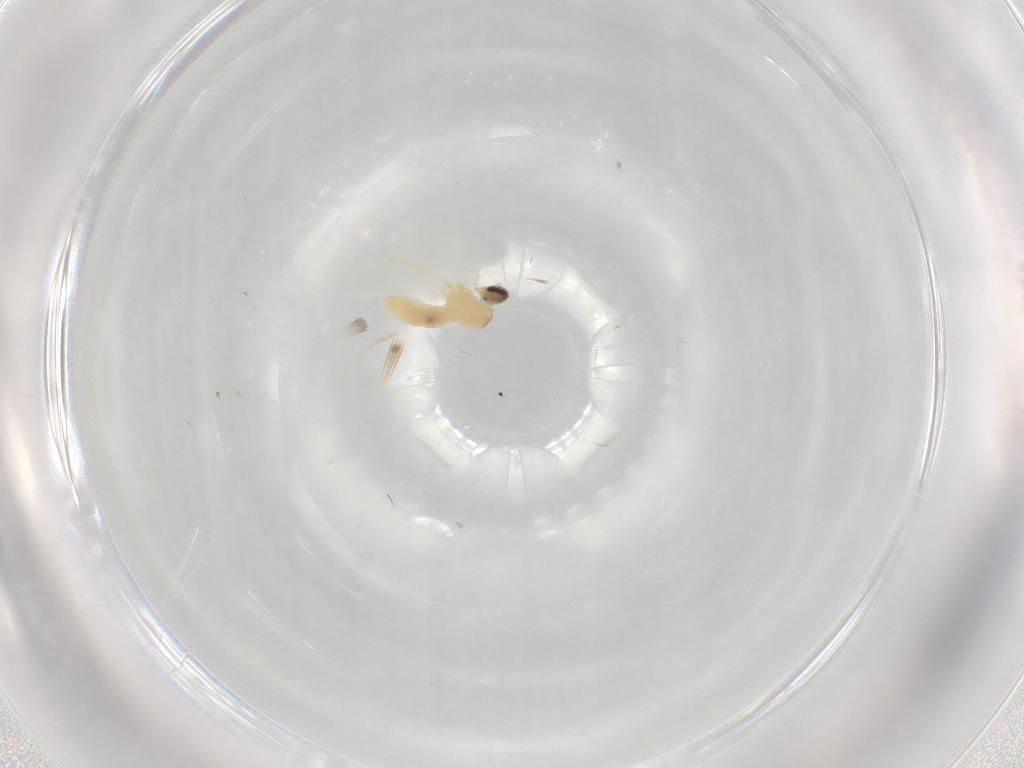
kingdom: Animalia
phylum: Arthropoda
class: Insecta
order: Diptera
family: Cecidomyiidae
